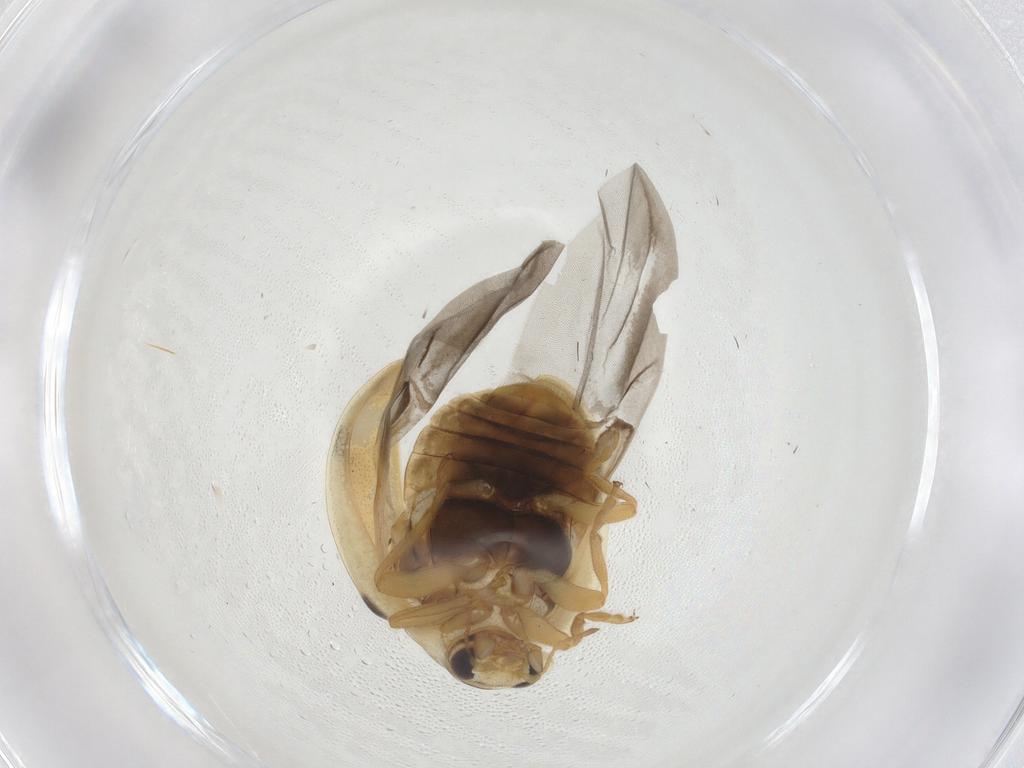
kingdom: Animalia
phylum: Arthropoda
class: Insecta
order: Coleoptera
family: Coccinellidae
